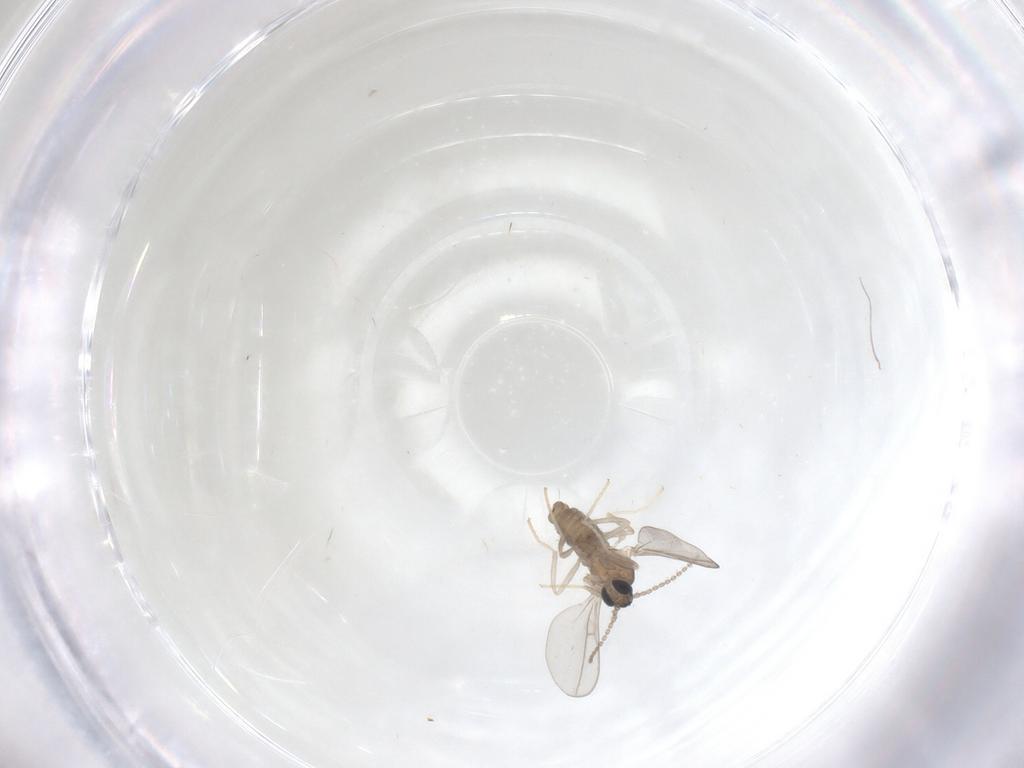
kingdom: Animalia
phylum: Arthropoda
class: Insecta
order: Diptera
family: Cecidomyiidae
